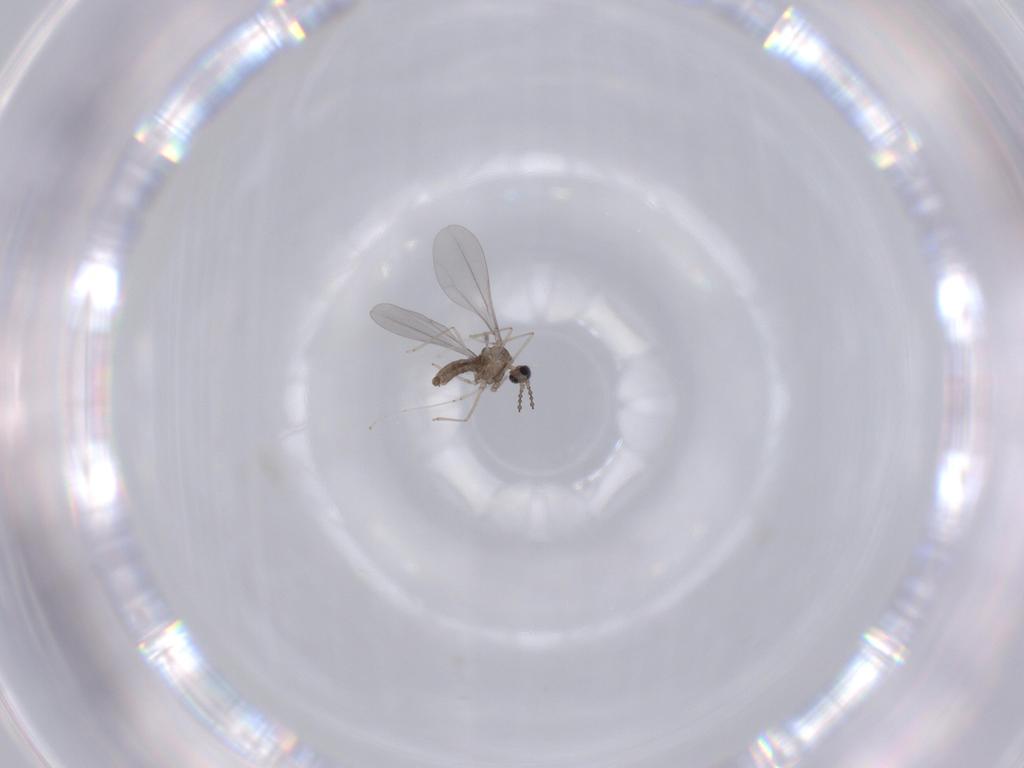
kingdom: Animalia
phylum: Arthropoda
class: Insecta
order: Diptera
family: Cecidomyiidae
